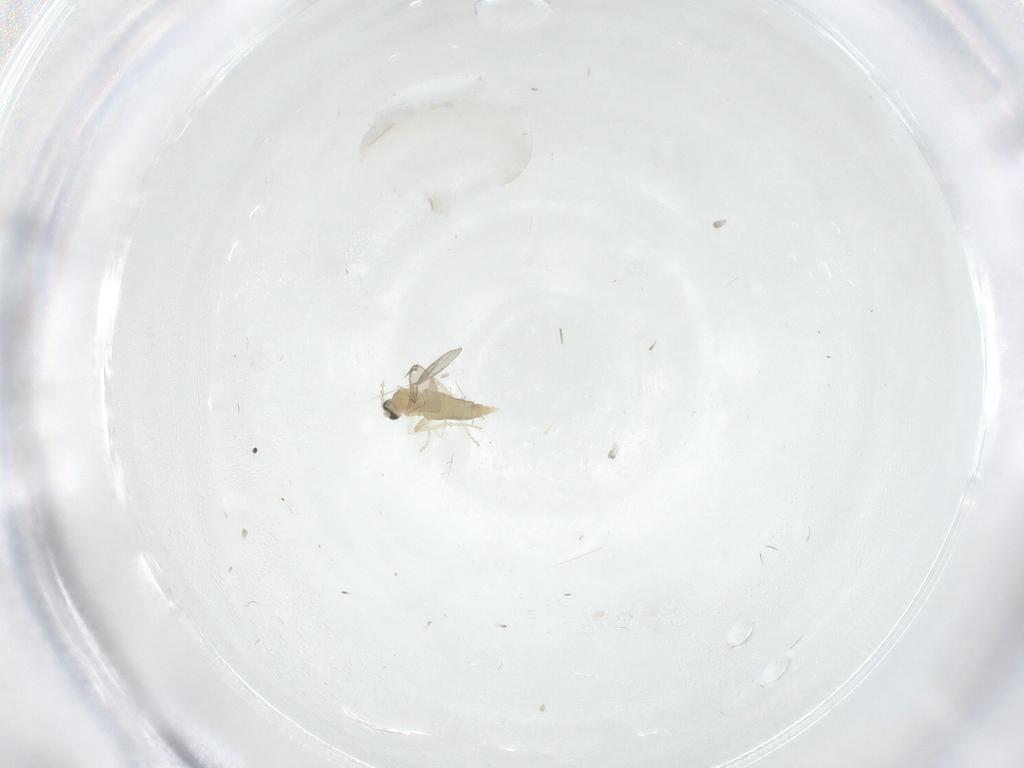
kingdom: Animalia
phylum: Arthropoda
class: Insecta
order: Diptera
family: Cecidomyiidae
